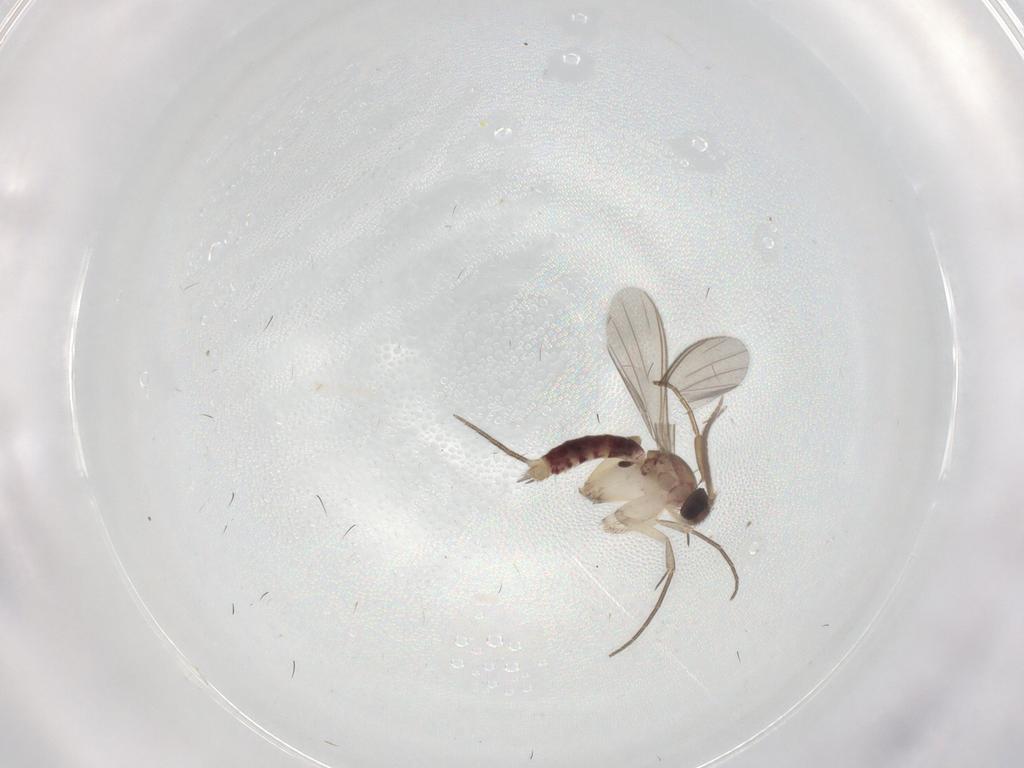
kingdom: Animalia
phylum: Arthropoda
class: Insecta
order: Diptera
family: Mycetophilidae
